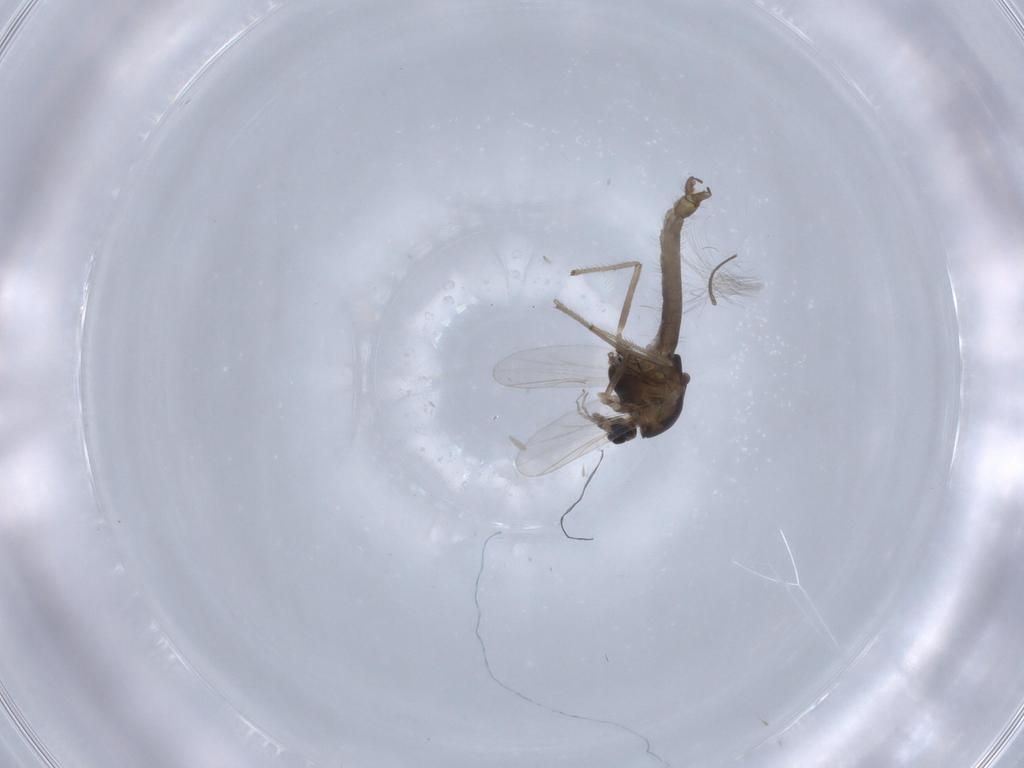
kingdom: Animalia
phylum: Arthropoda
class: Insecta
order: Diptera
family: Chironomidae
